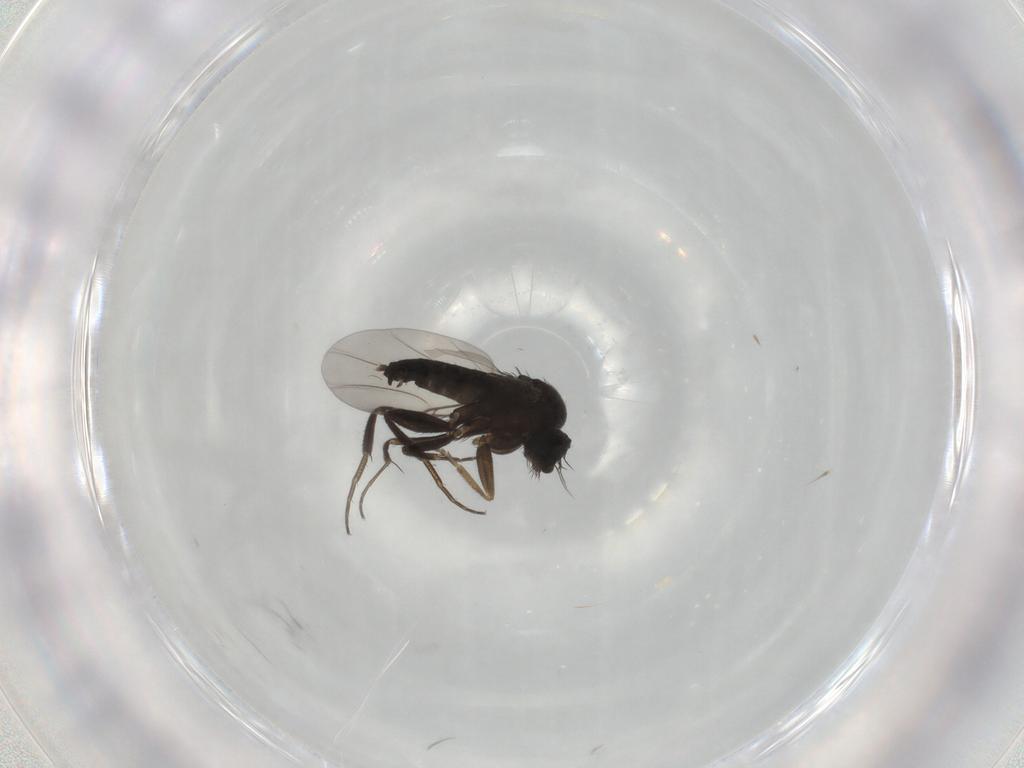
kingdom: Animalia
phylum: Arthropoda
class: Insecta
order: Diptera
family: Phoridae
